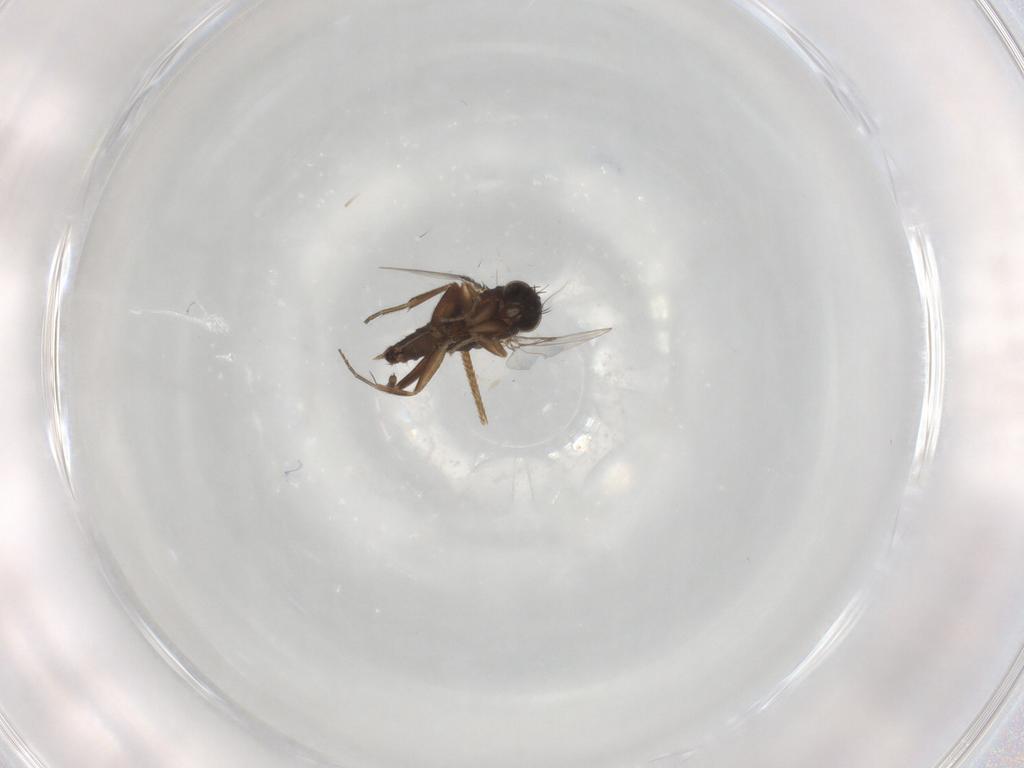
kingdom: Animalia
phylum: Arthropoda
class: Insecta
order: Diptera
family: Phoridae
